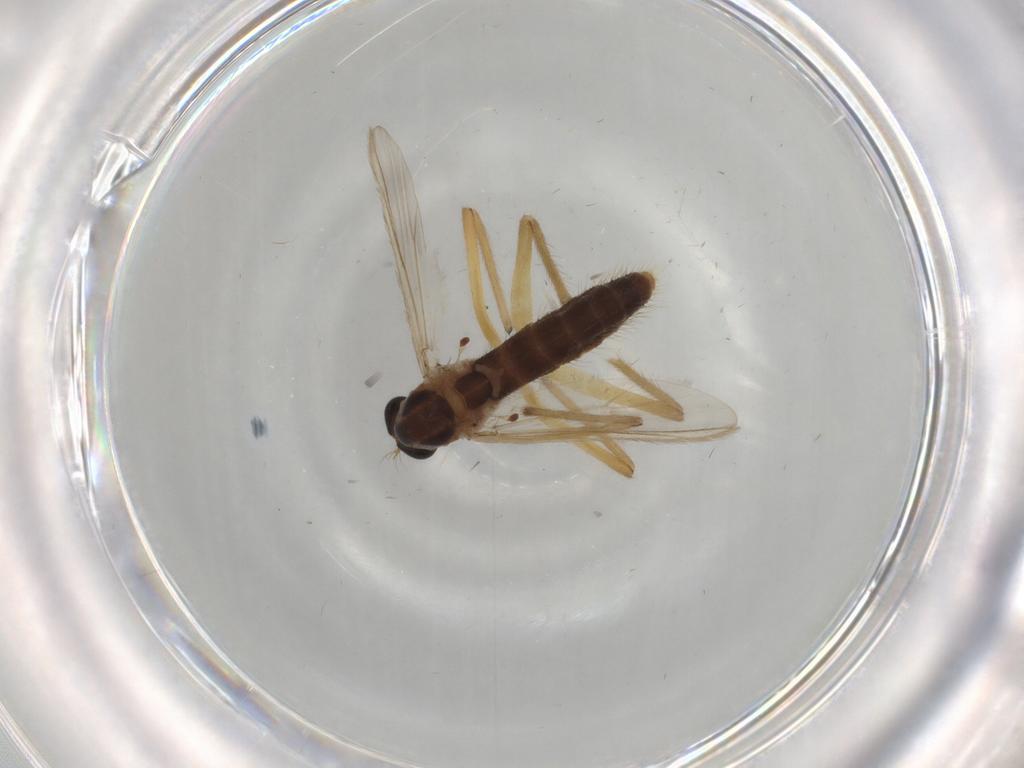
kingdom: Animalia
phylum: Arthropoda
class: Insecta
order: Diptera
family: Chironomidae
